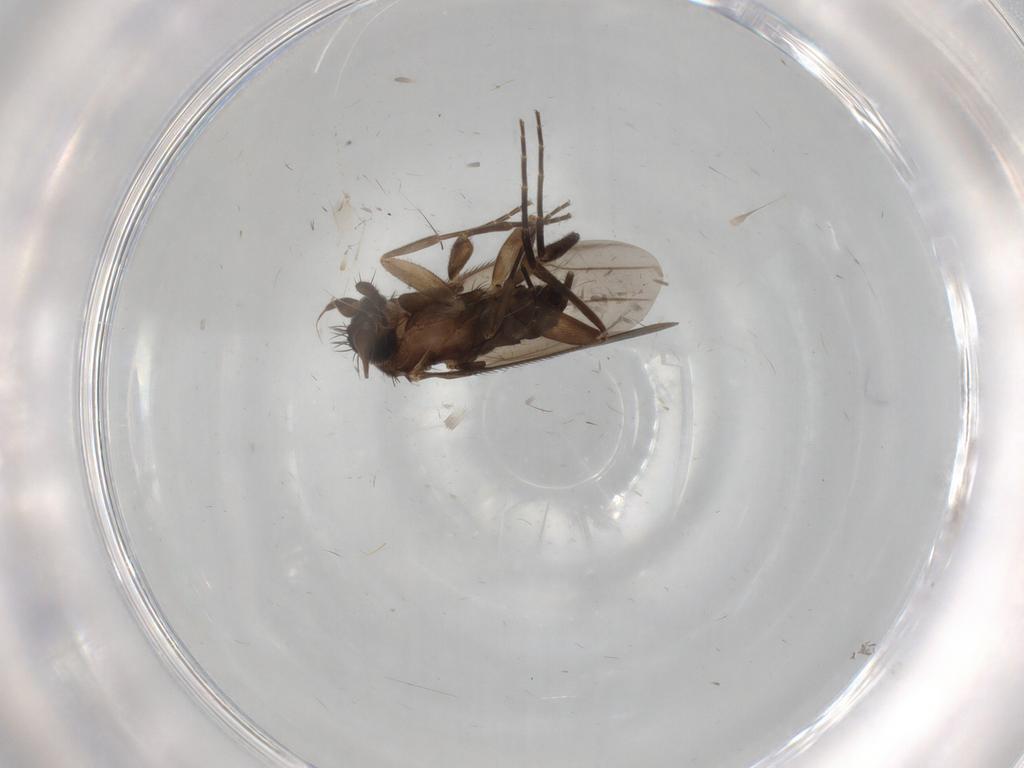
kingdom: Animalia
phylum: Arthropoda
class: Insecta
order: Diptera
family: Phoridae
